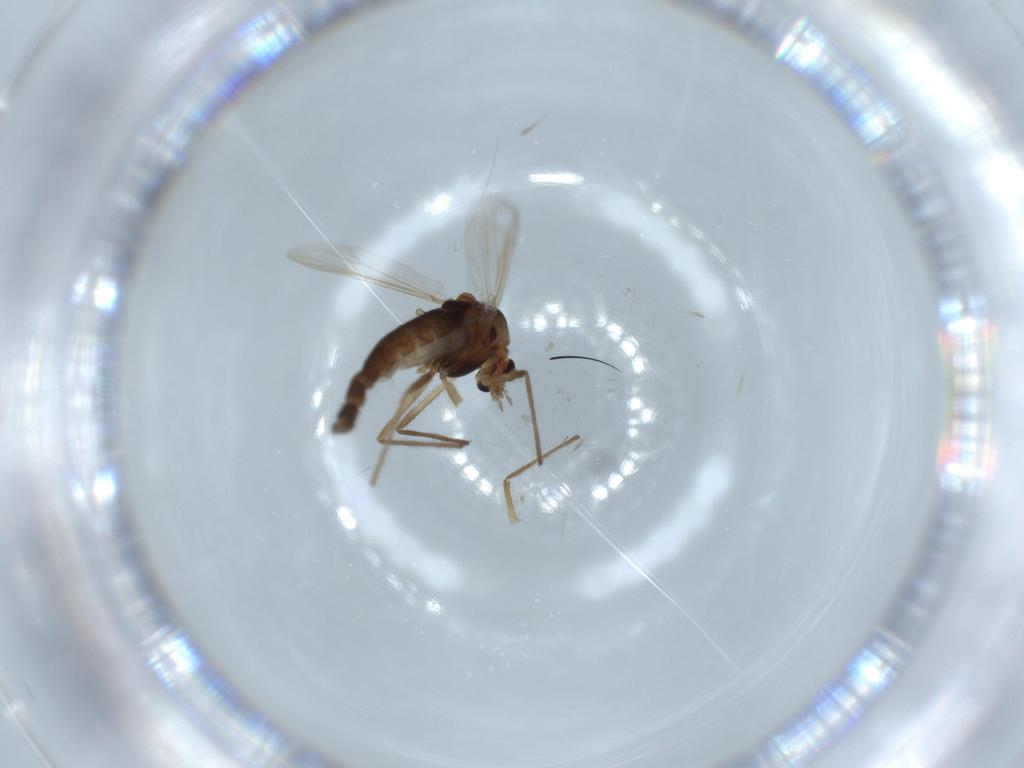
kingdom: Animalia
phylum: Arthropoda
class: Insecta
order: Diptera
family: Chironomidae
